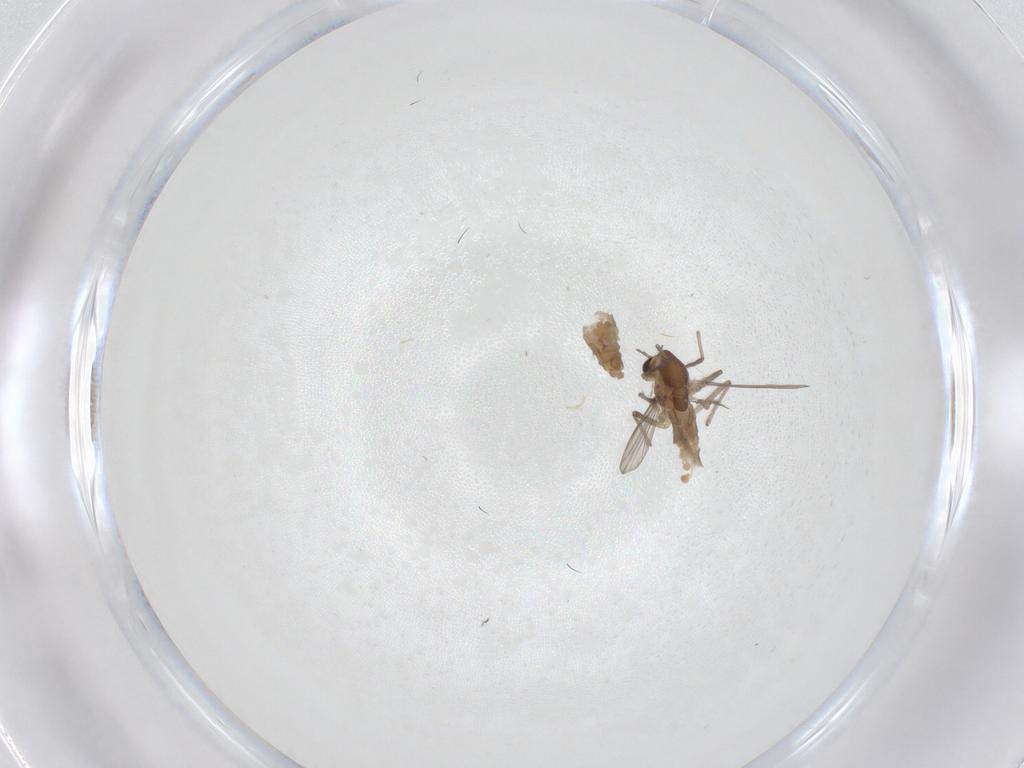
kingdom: Animalia
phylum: Arthropoda
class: Insecta
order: Diptera
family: Chironomidae
